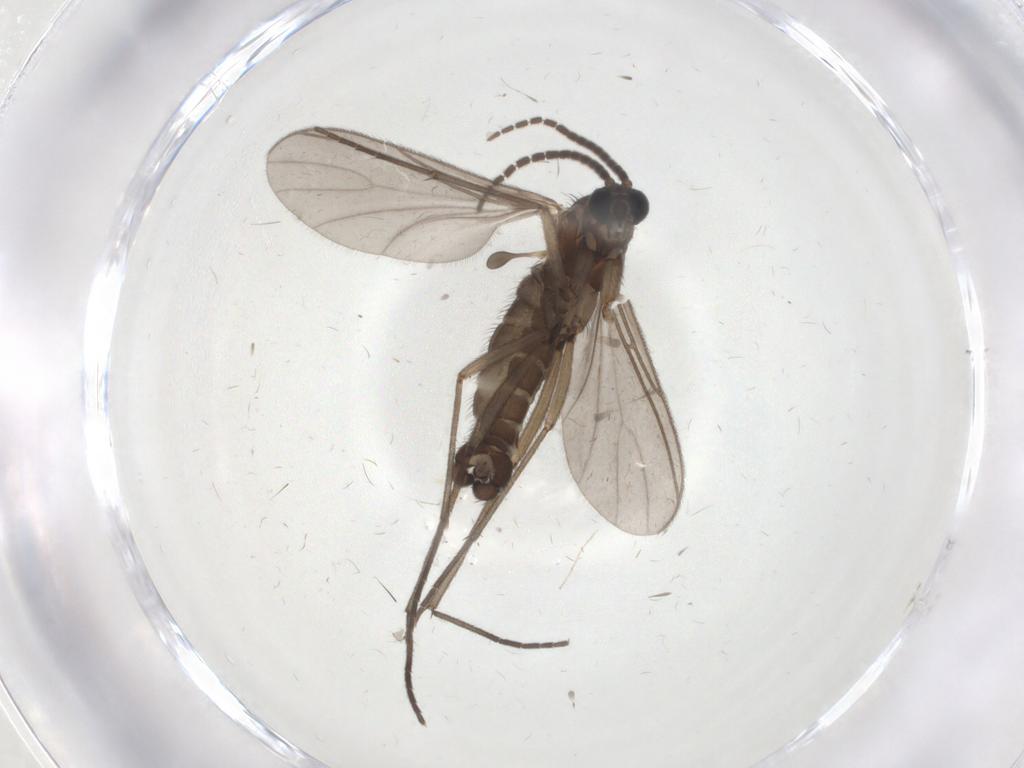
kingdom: Animalia
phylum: Arthropoda
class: Insecta
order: Diptera
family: Sciaridae
